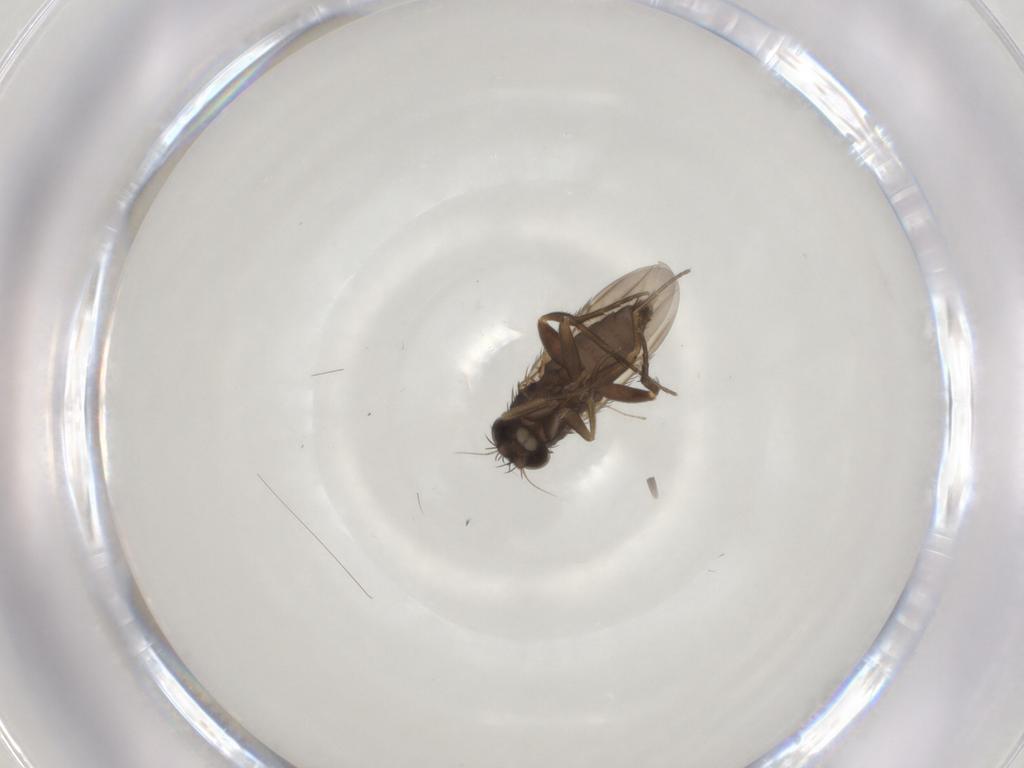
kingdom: Animalia
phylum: Arthropoda
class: Insecta
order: Diptera
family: Phoridae
